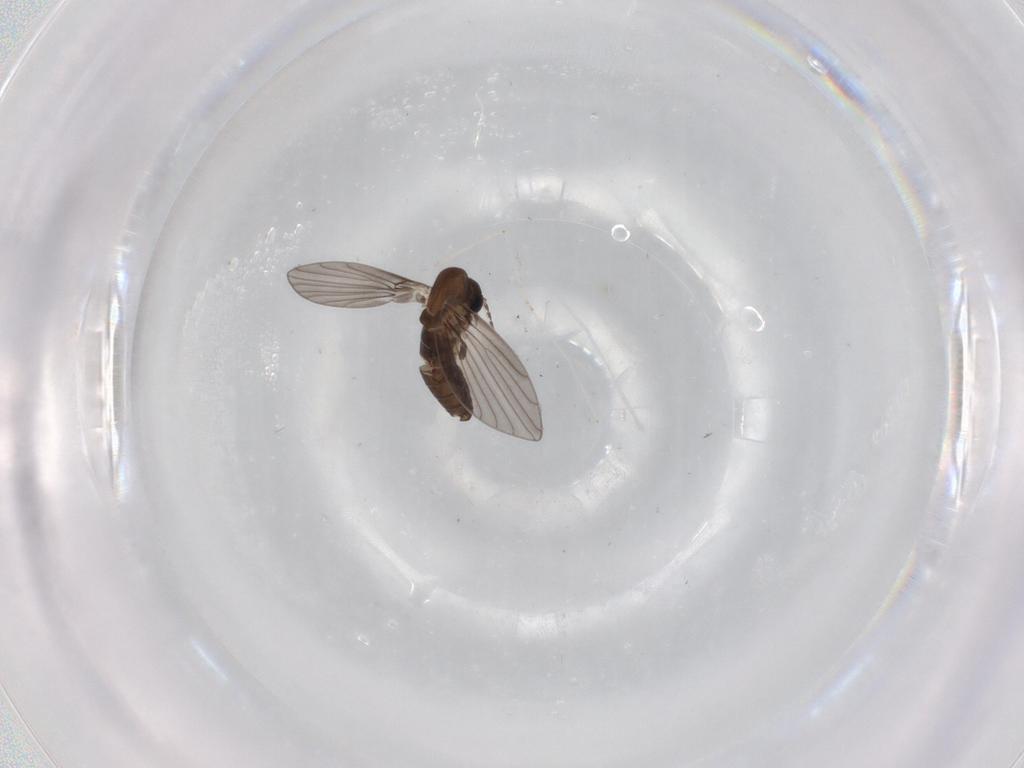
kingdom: Animalia
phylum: Arthropoda
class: Insecta
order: Diptera
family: Psychodidae
